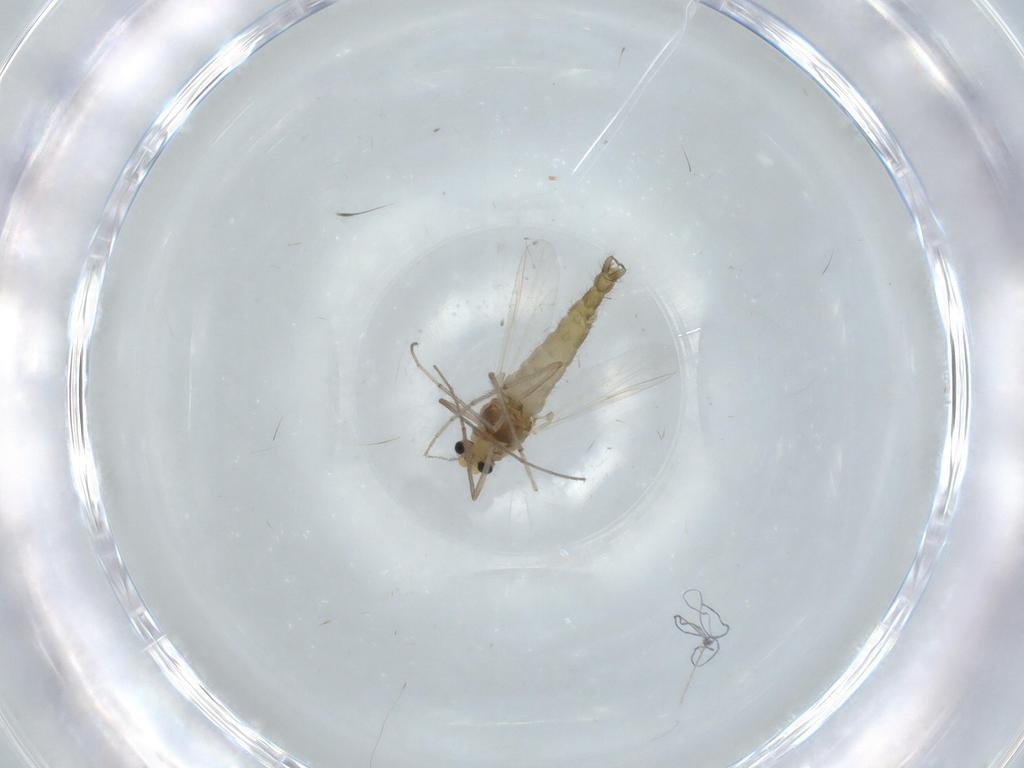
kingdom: Animalia
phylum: Arthropoda
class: Insecta
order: Diptera
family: Chironomidae
